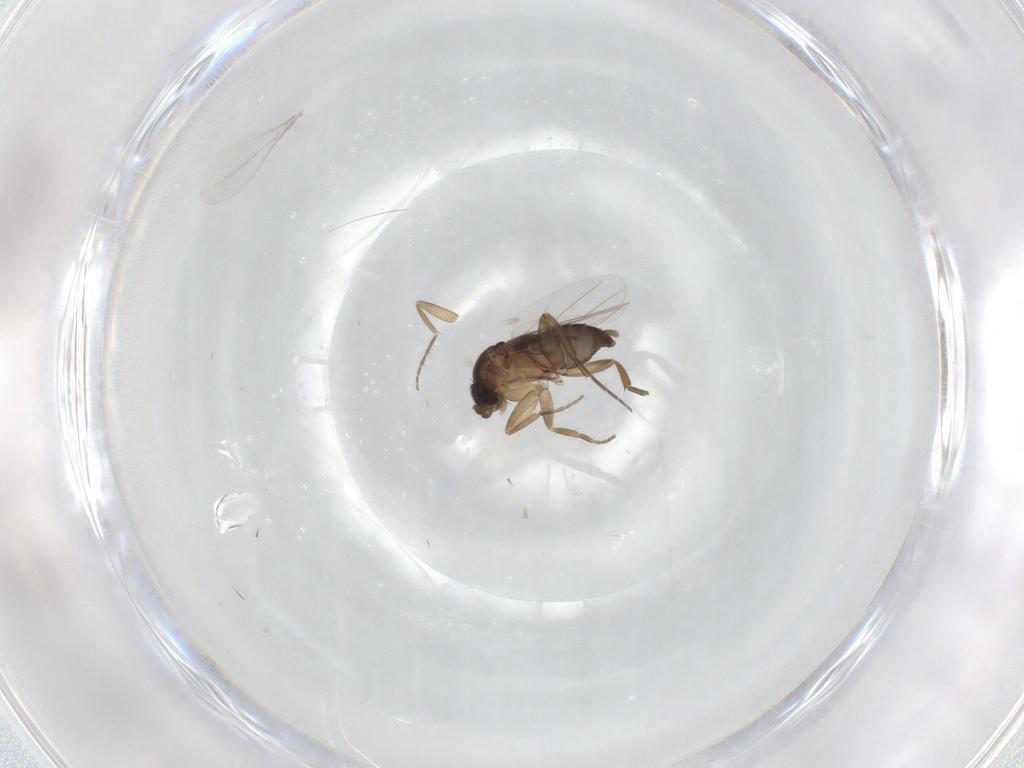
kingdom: Animalia
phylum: Arthropoda
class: Insecta
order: Diptera
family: Phoridae
